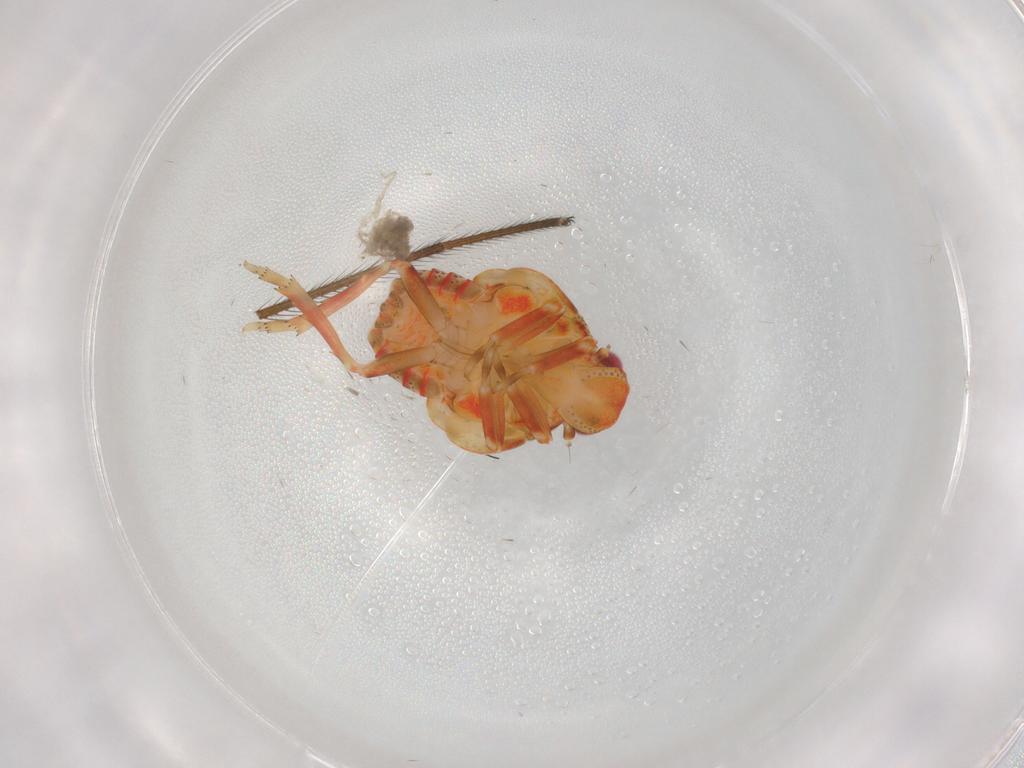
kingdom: Animalia
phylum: Arthropoda
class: Insecta
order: Hemiptera
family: Flatidae
